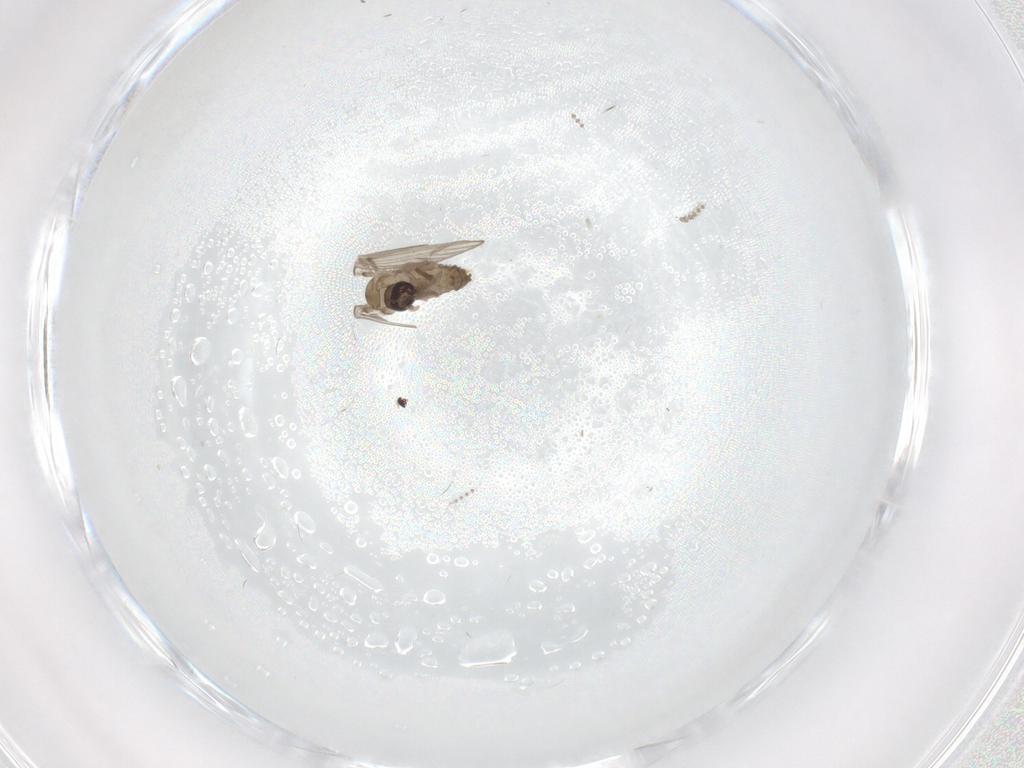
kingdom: Animalia
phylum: Arthropoda
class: Insecta
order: Diptera
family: Psychodidae
